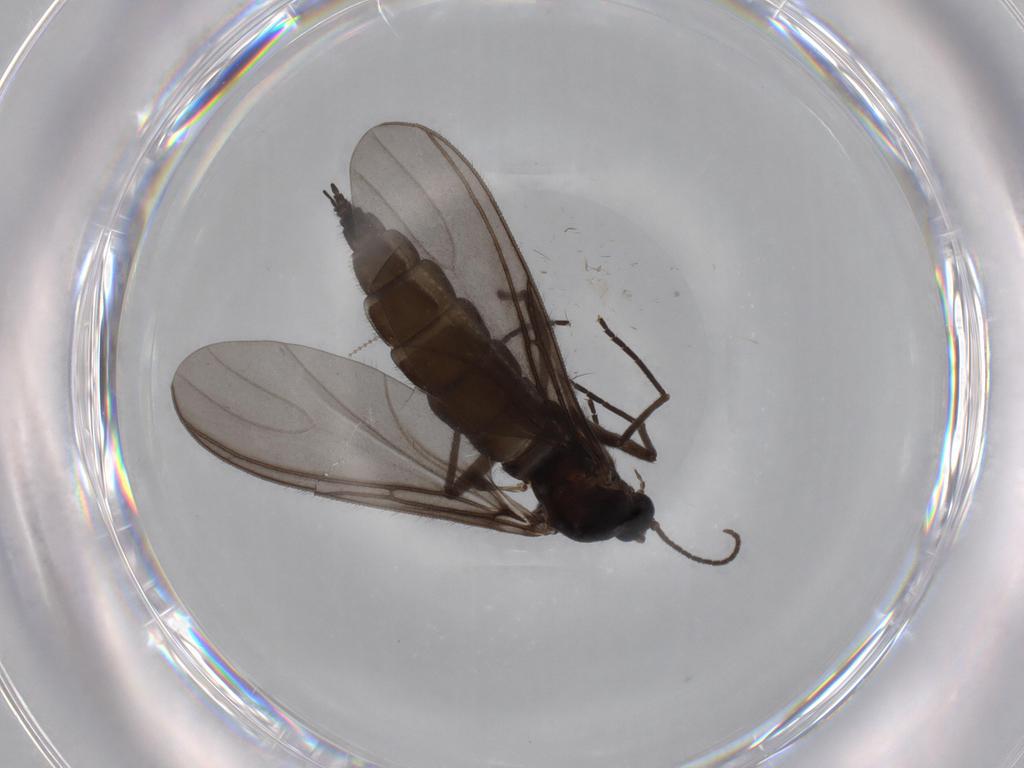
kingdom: Animalia
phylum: Arthropoda
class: Insecta
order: Diptera
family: Sciaridae
